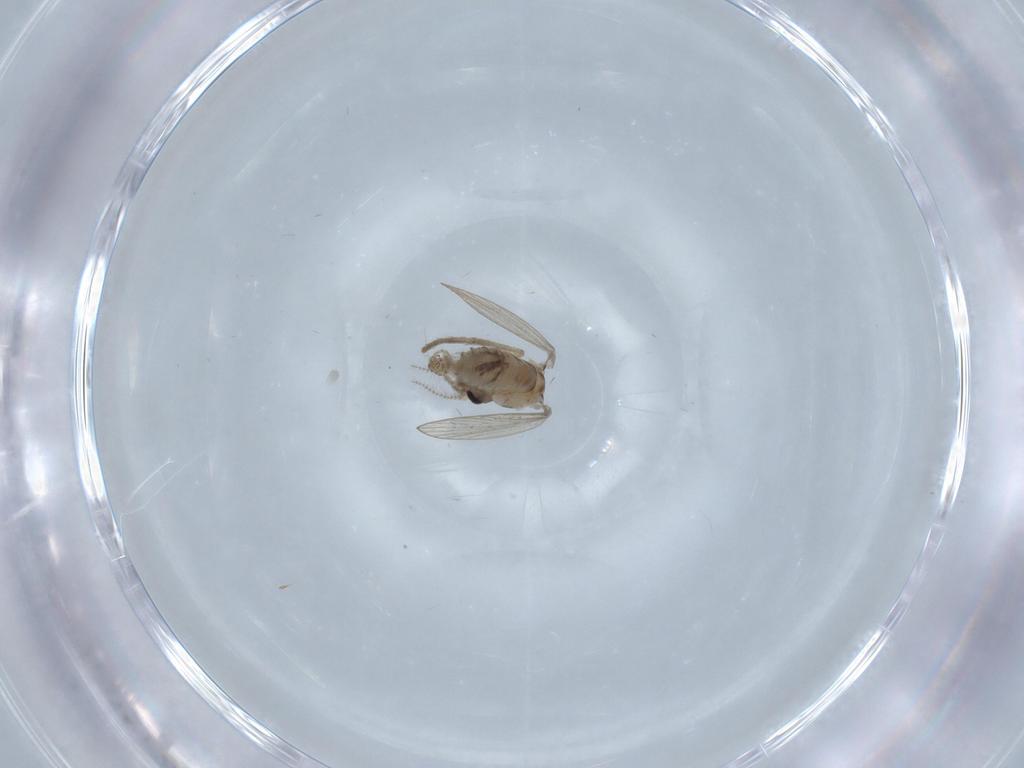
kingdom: Animalia
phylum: Arthropoda
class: Insecta
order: Diptera
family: Psychodidae
